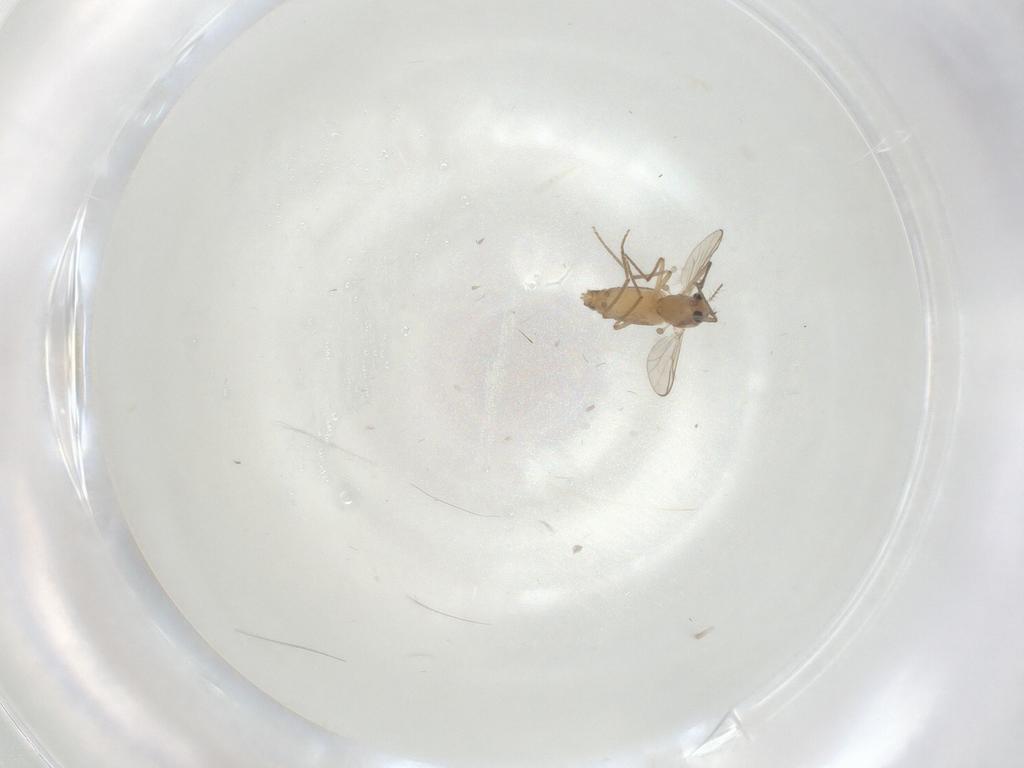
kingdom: Animalia
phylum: Arthropoda
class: Insecta
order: Diptera
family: Chironomidae
